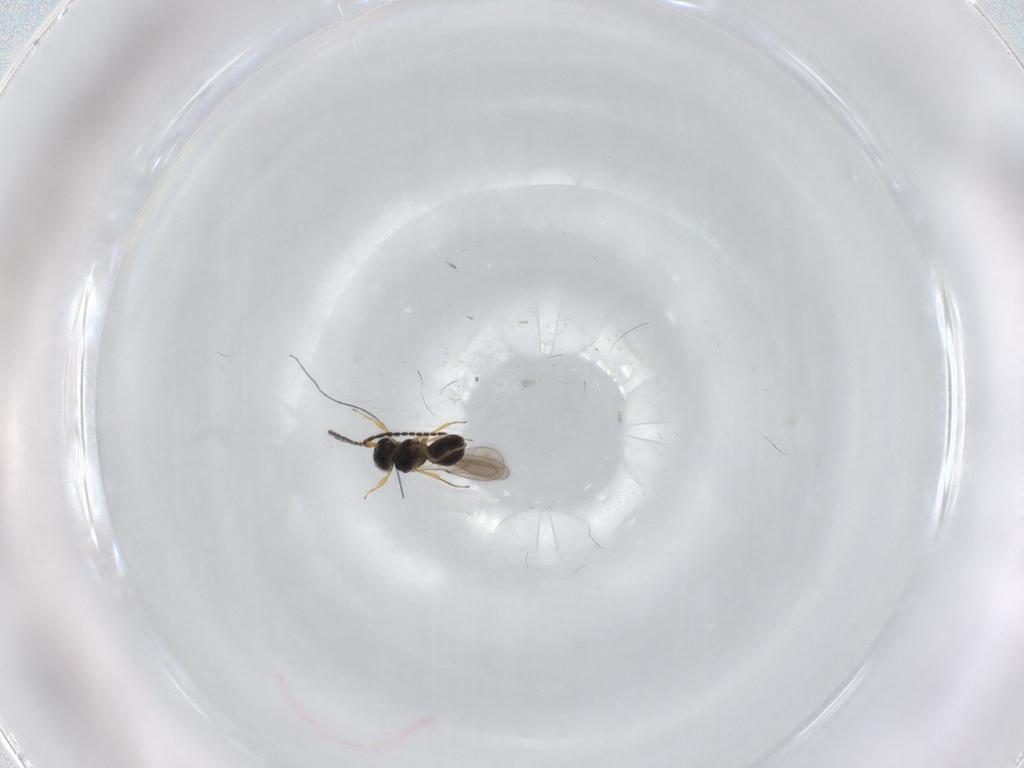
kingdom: Animalia
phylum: Arthropoda
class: Insecta
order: Hymenoptera
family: Scelionidae
